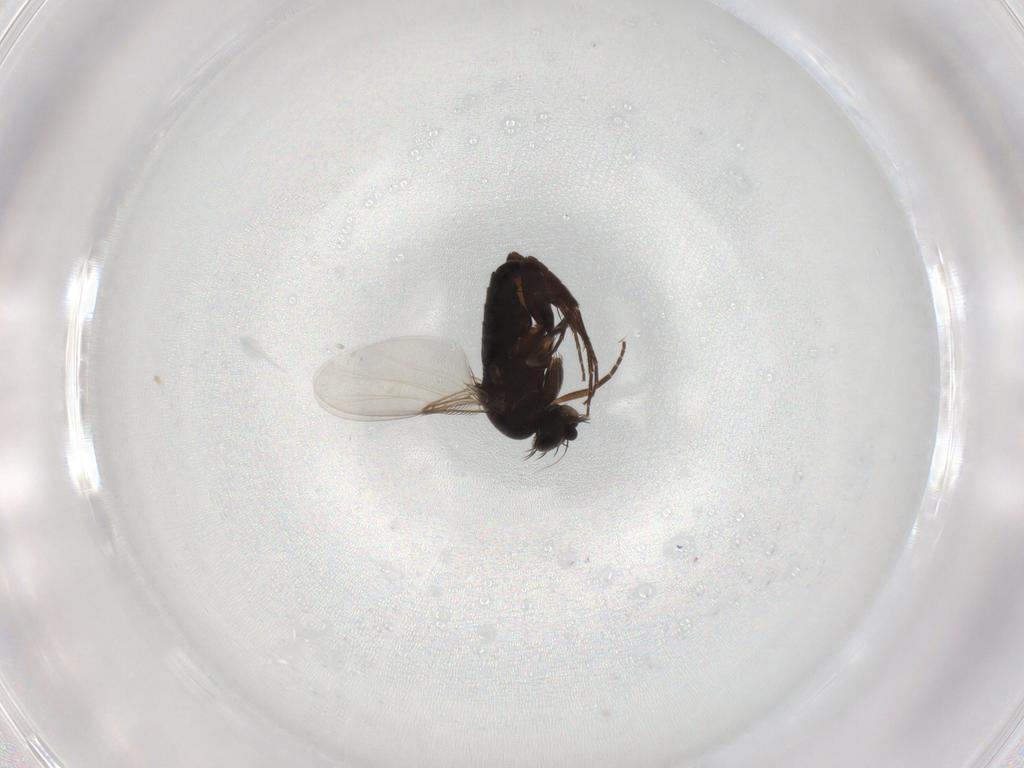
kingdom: Animalia
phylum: Arthropoda
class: Insecta
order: Diptera
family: Phoridae
